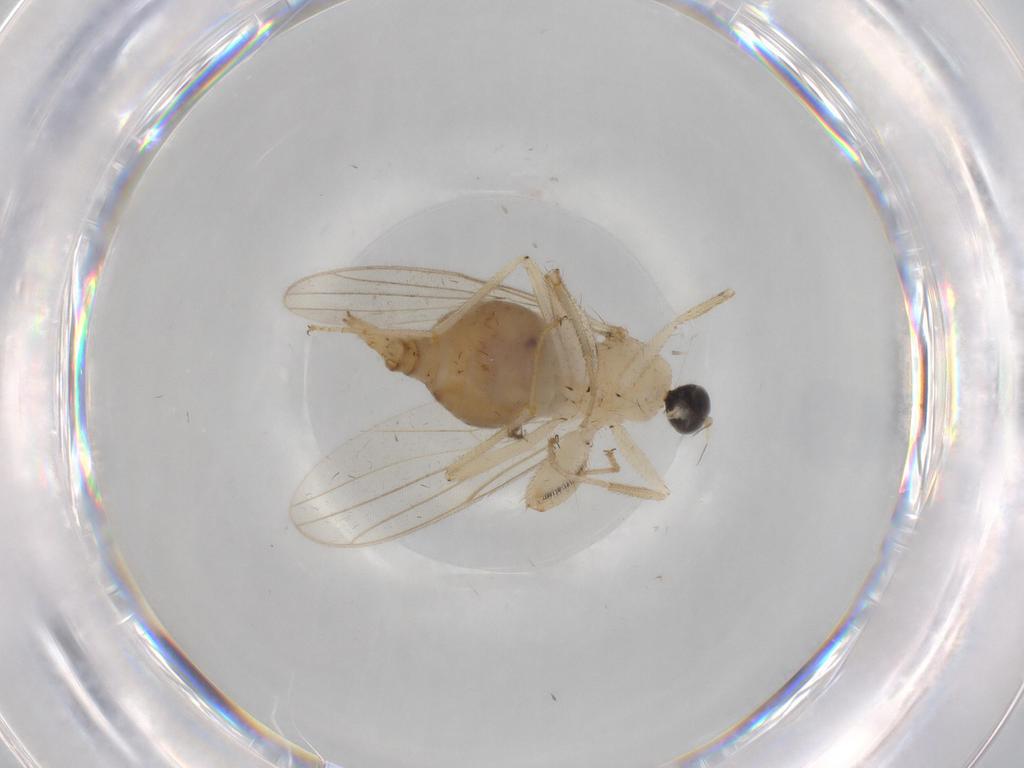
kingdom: Animalia
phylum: Arthropoda
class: Insecta
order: Diptera
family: Hybotidae
